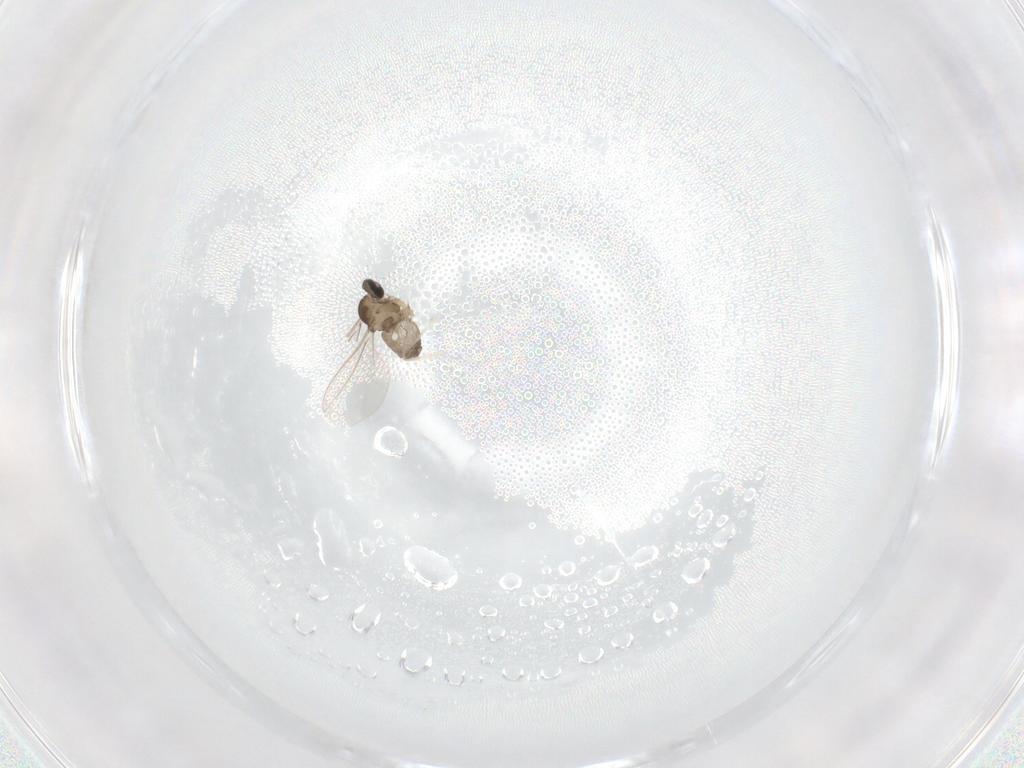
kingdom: Animalia
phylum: Arthropoda
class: Insecta
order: Diptera
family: Cecidomyiidae
